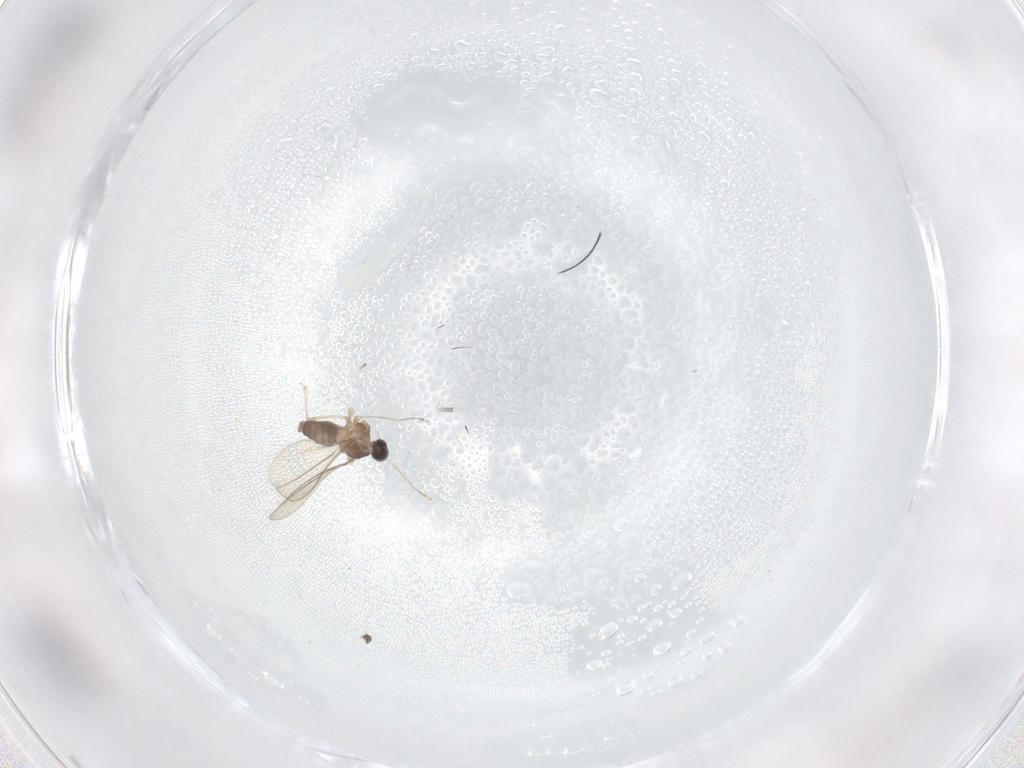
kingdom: Animalia
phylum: Arthropoda
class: Insecta
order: Diptera
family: Cecidomyiidae
